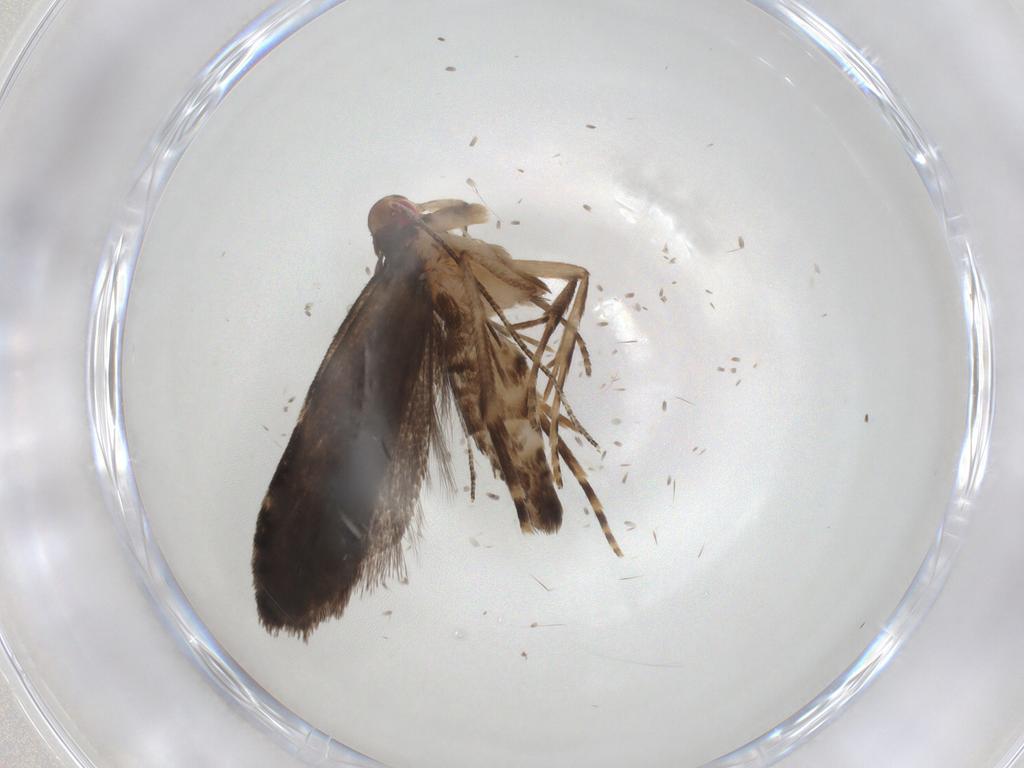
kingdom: Animalia
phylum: Arthropoda
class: Insecta
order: Lepidoptera
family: Gelechiidae
